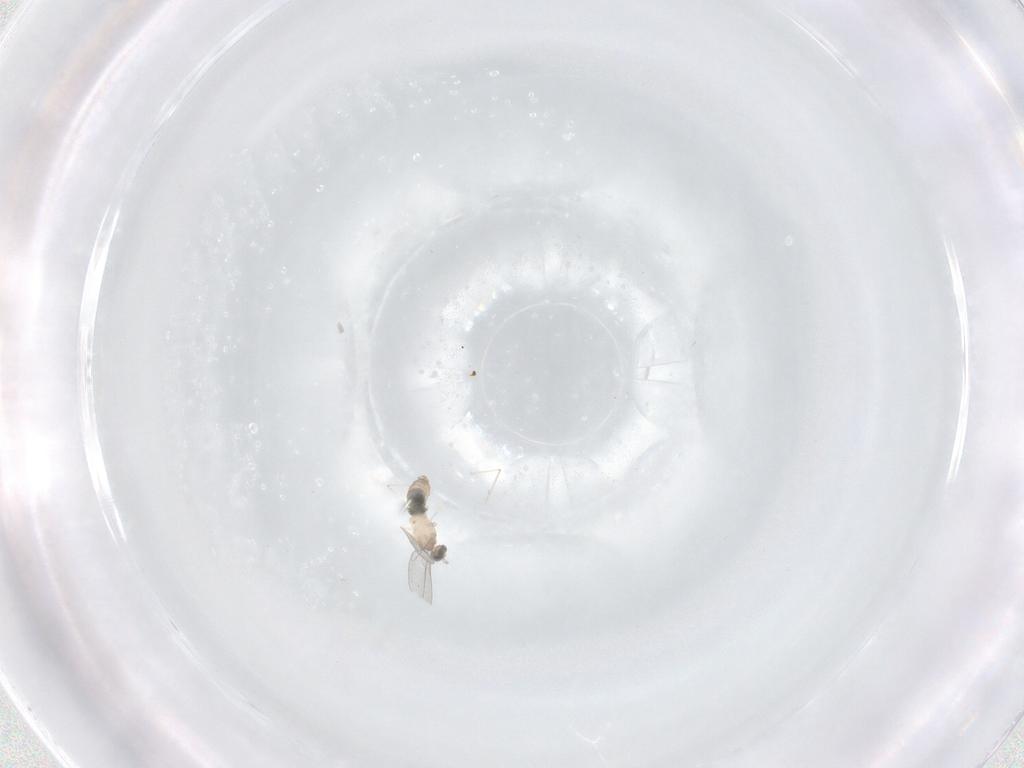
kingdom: Animalia
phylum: Arthropoda
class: Insecta
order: Diptera
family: Cecidomyiidae
